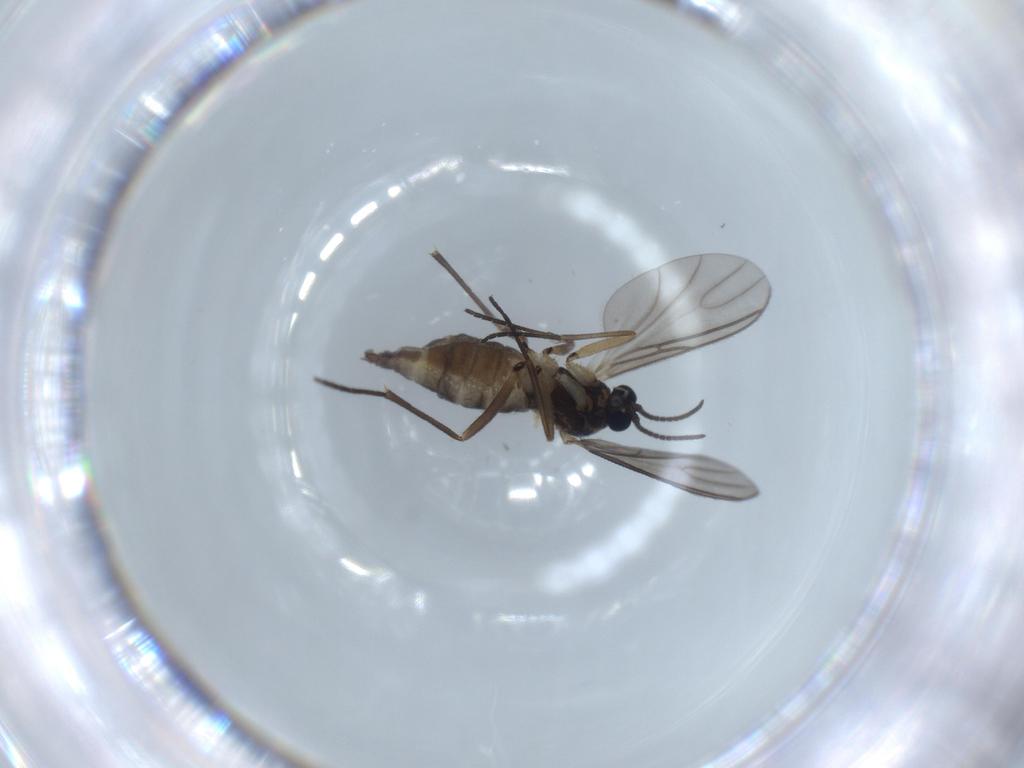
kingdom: Animalia
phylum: Arthropoda
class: Insecta
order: Diptera
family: Sciaridae
